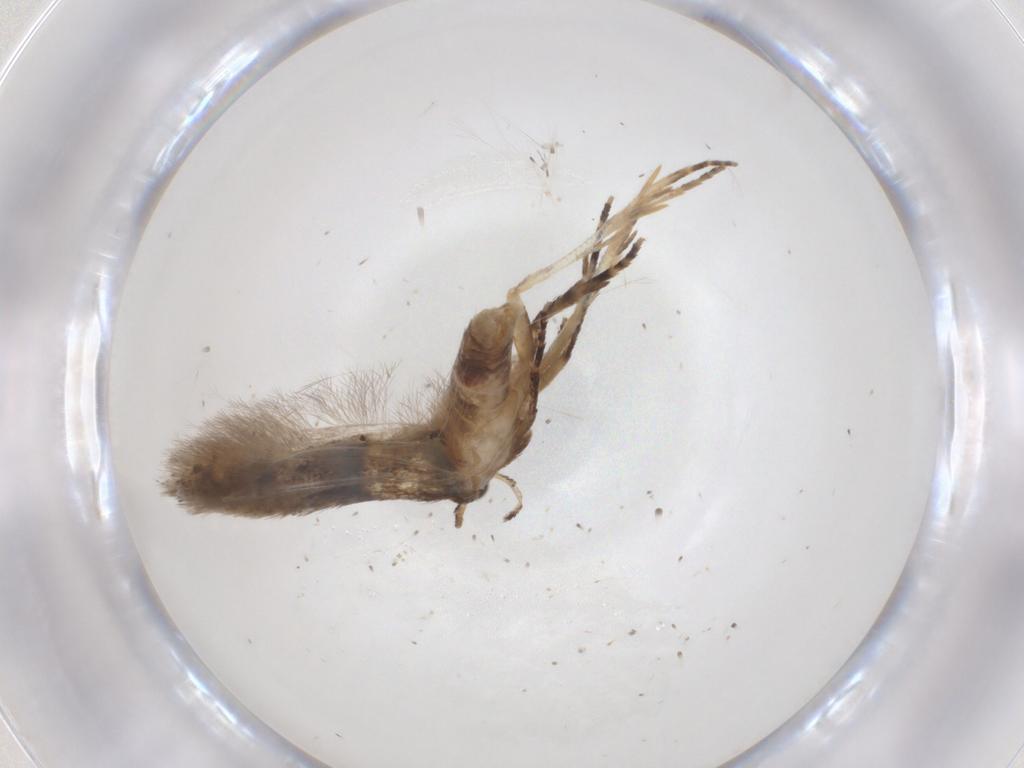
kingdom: Animalia
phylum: Arthropoda
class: Insecta
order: Lepidoptera
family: Gelechiidae
